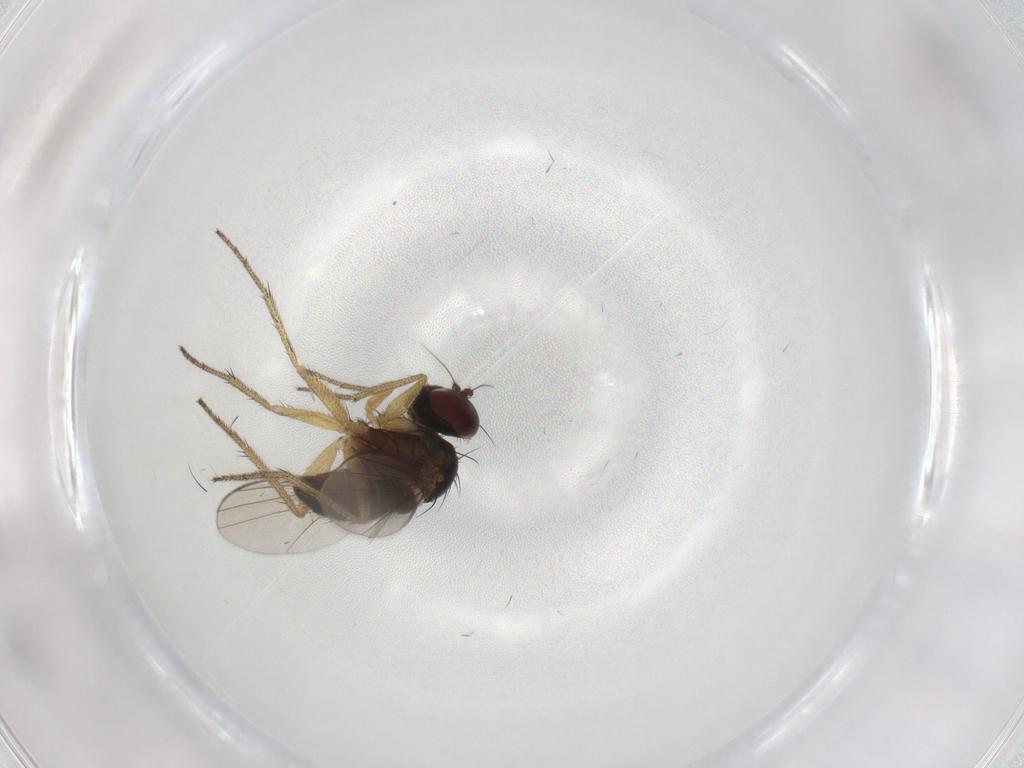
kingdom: Animalia
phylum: Arthropoda
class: Insecta
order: Diptera
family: Dolichopodidae
